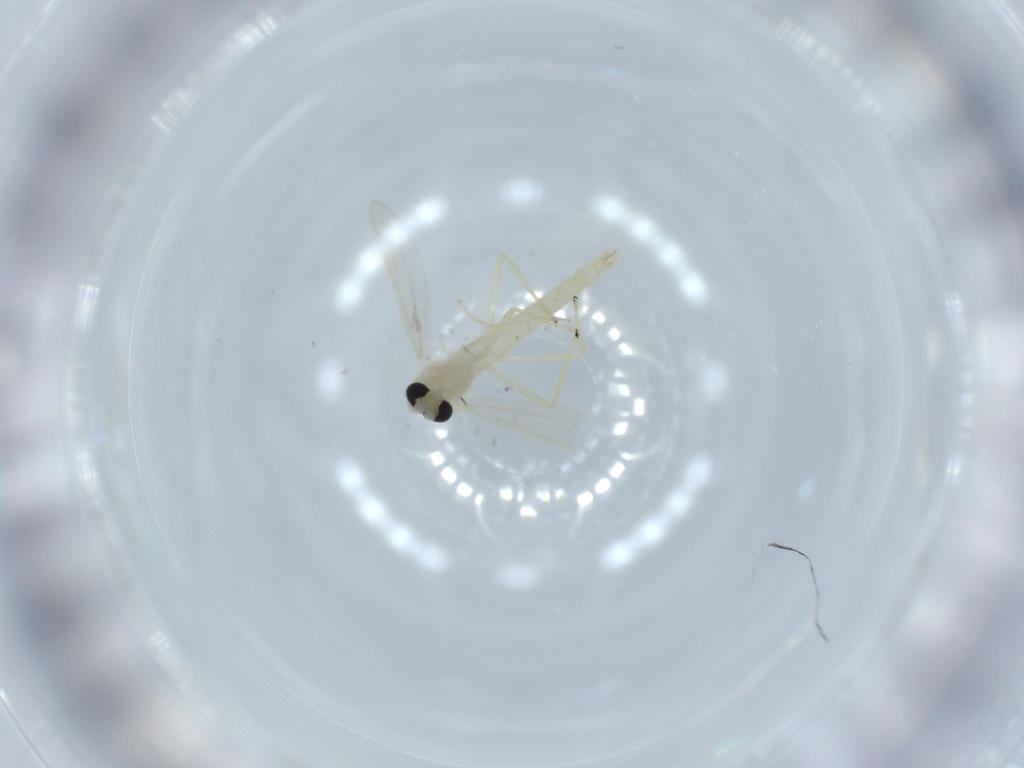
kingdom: Animalia
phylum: Arthropoda
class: Insecta
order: Diptera
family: Chironomidae
